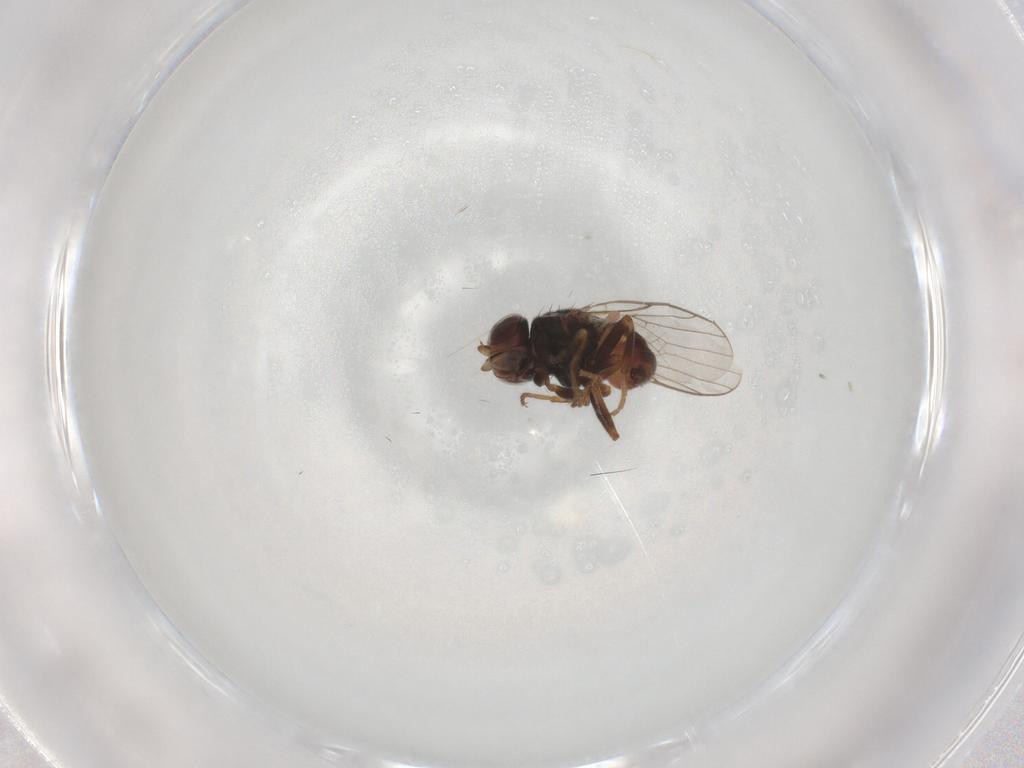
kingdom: Animalia
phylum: Arthropoda
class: Insecta
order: Diptera
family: Chloropidae
